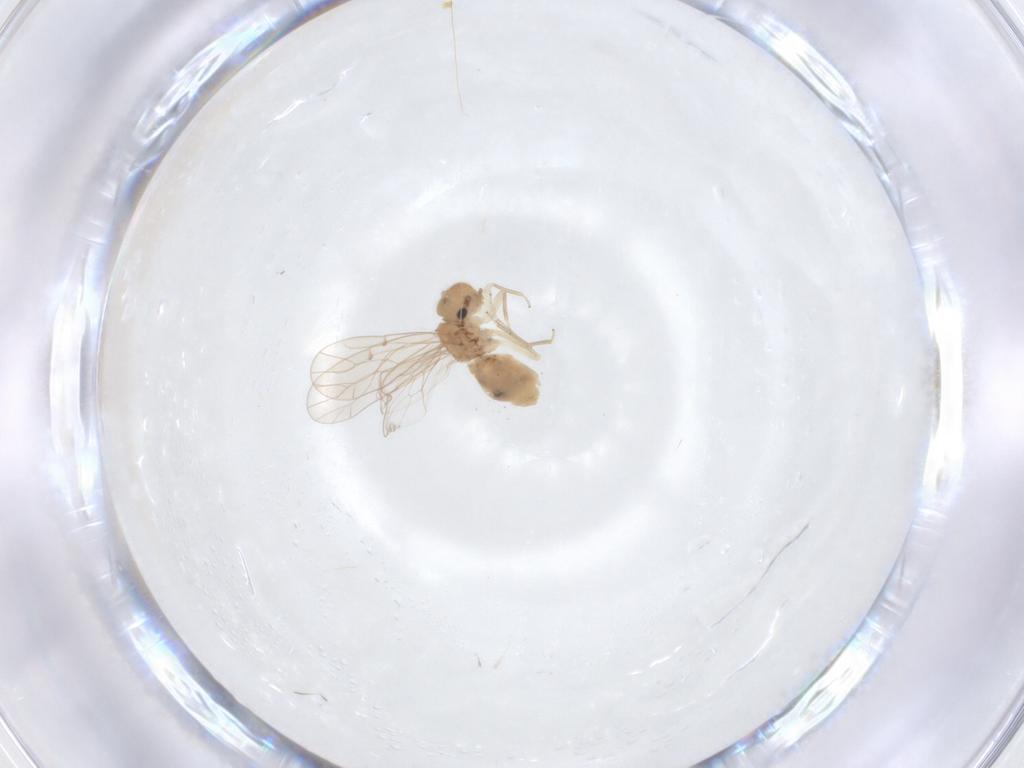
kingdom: Animalia
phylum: Arthropoda
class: Insecta
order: Psocodea
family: Ectopsocidae
